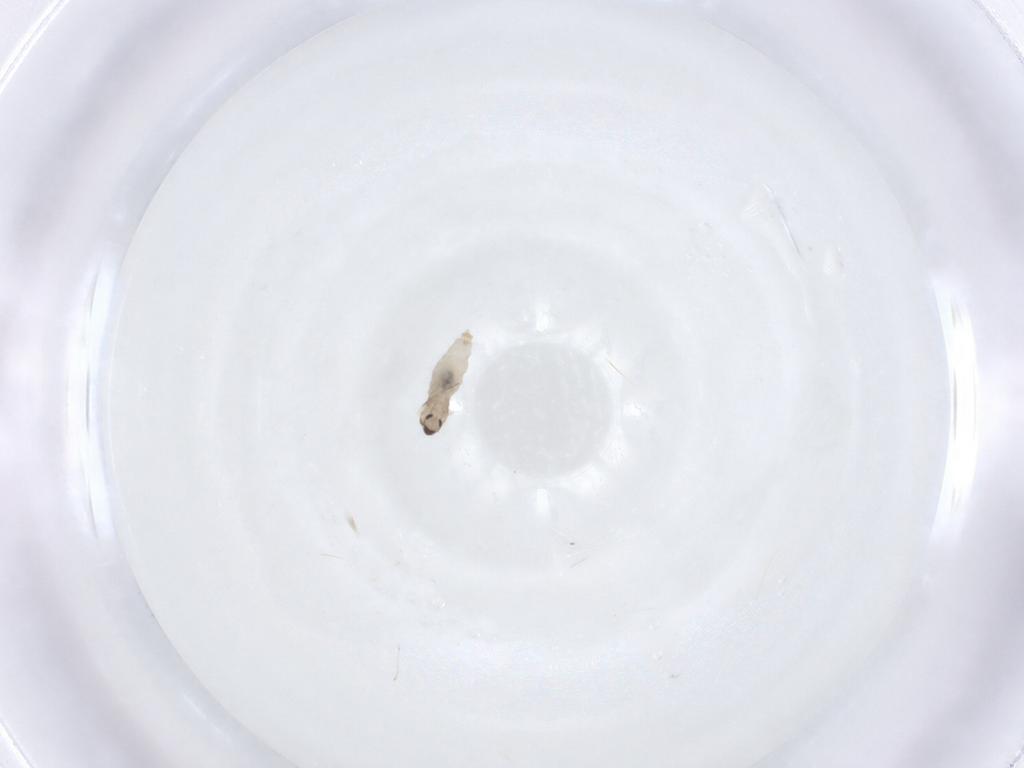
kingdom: Animalia
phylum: Arthropoda
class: Insecta
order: Diptera
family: Cecidomyiidae
